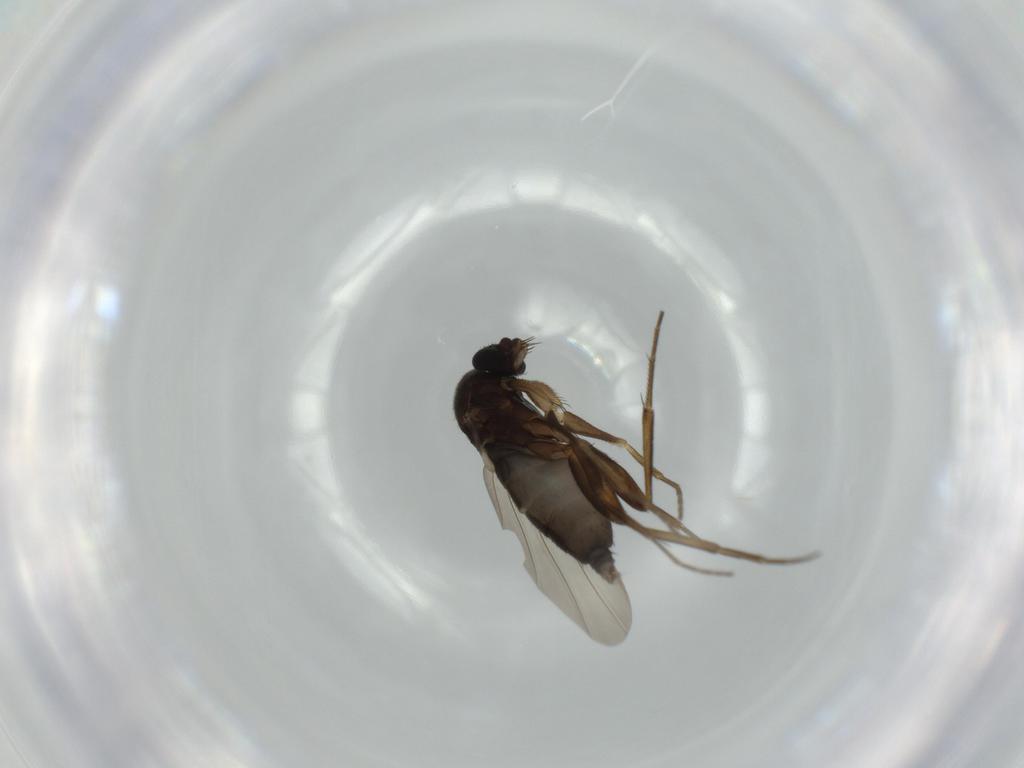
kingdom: Animalia
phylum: Arthropoda
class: Insecta
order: Diptera
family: Phoridae
